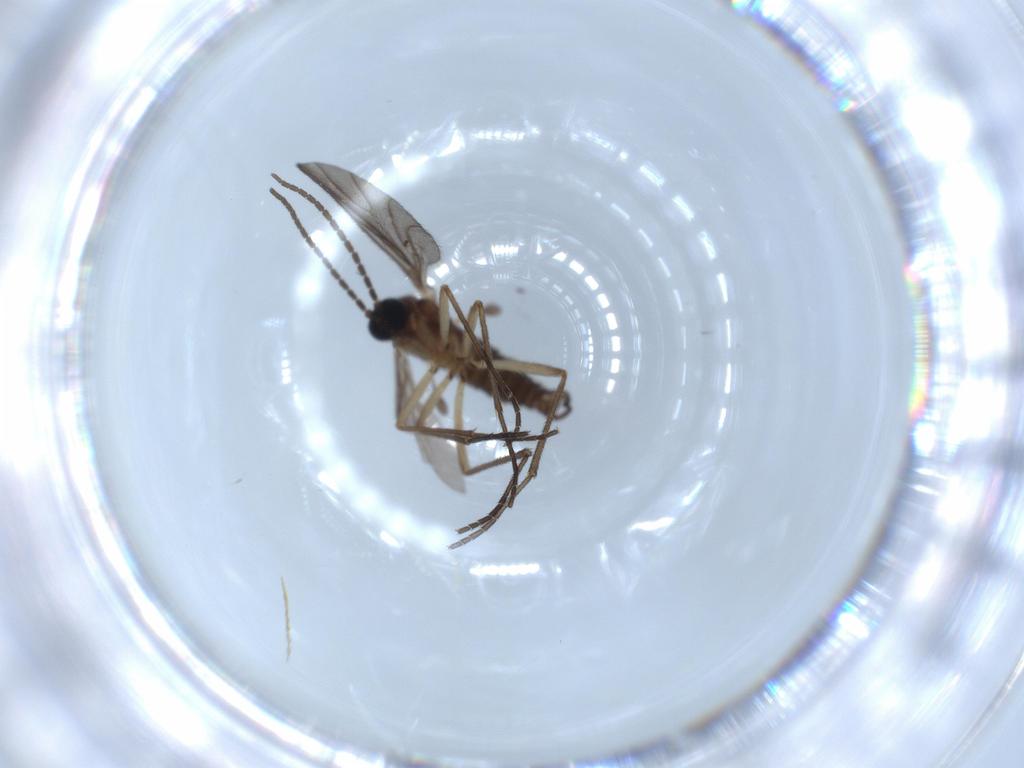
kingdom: Animalia
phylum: Arthropoda
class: Insecta
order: Diptera
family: Sciaridae
